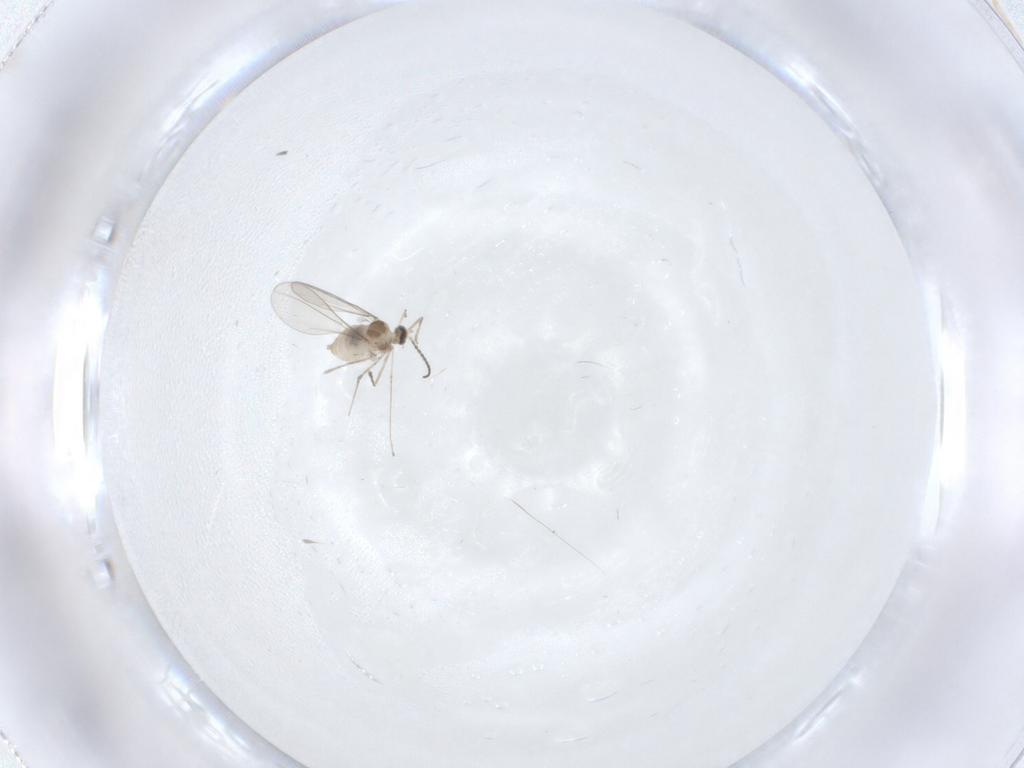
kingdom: Animalia
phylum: Arthropoda
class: Insecta
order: Diptera
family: Cecidomyiidae
